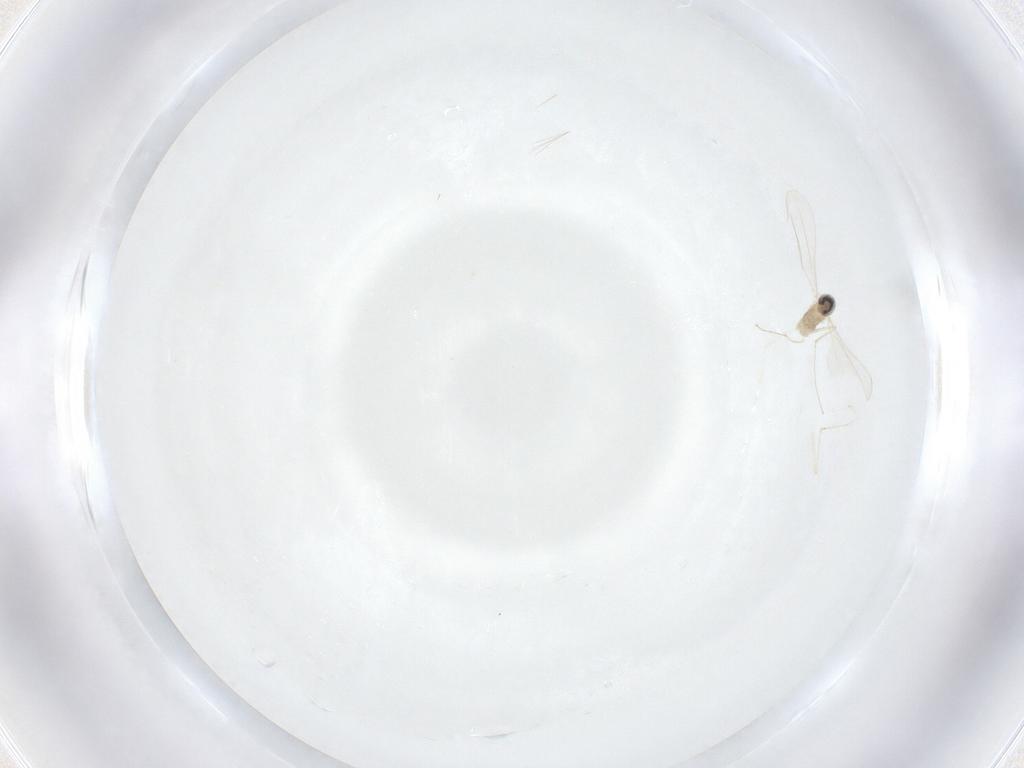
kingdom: Animalia
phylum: Arthropoda
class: Insecta
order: Diptera
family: Cecidomyiidae
